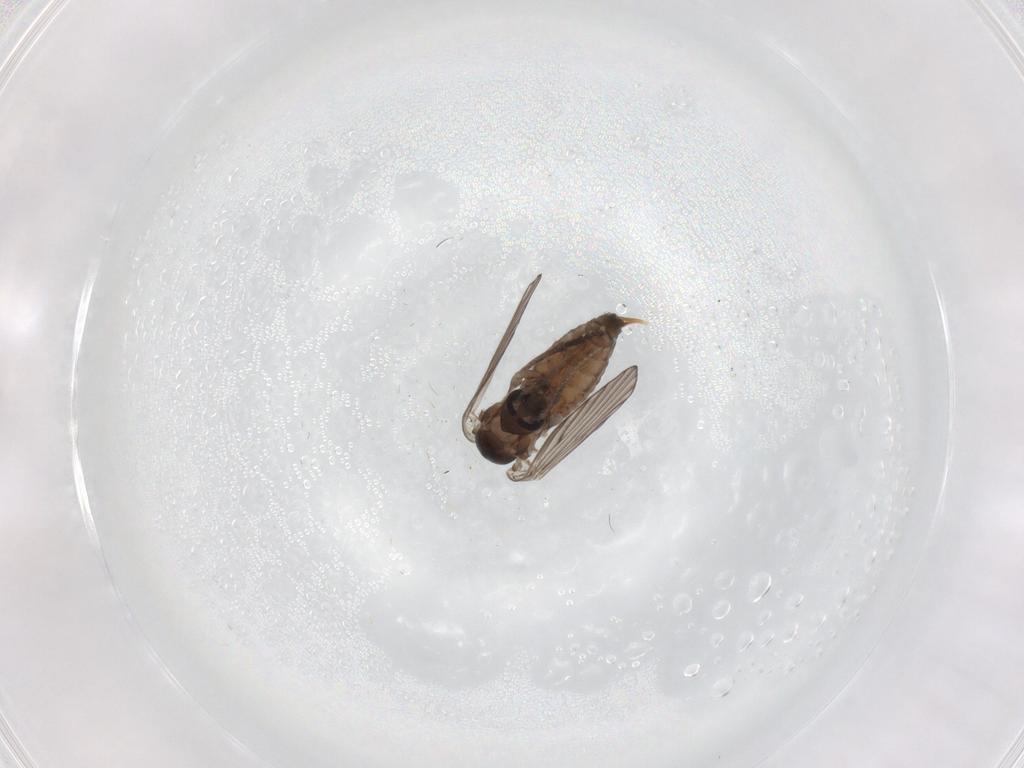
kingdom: Animalia
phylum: Arthropoda
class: Insecta
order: Diptera
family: Psychodidae
